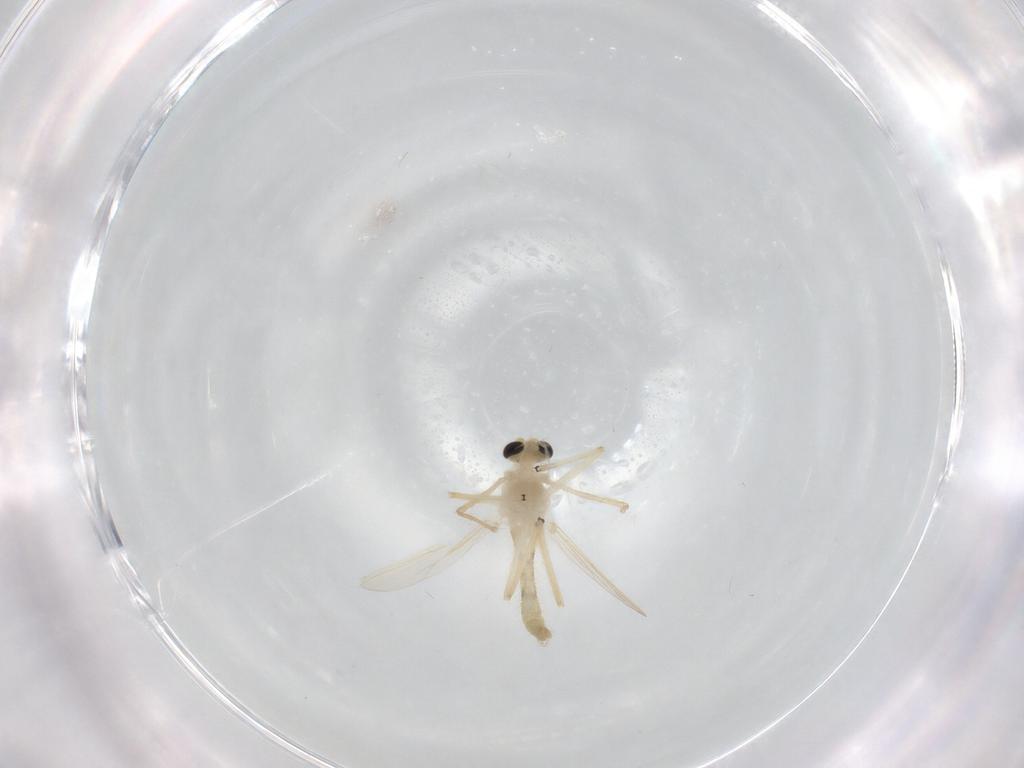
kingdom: Animalia
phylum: Arthropoda
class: Insecta
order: Diptera
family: Chironomidae
